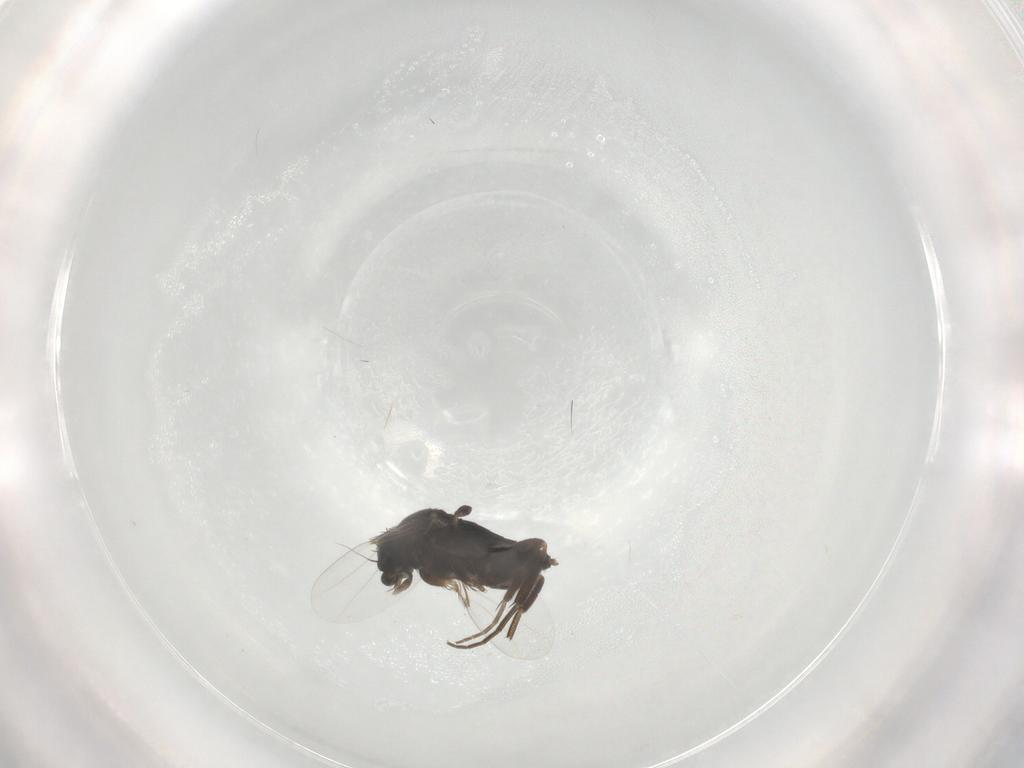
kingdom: Animalia
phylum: Arthropoda
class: Insecta
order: Diptera
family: Phoridae
